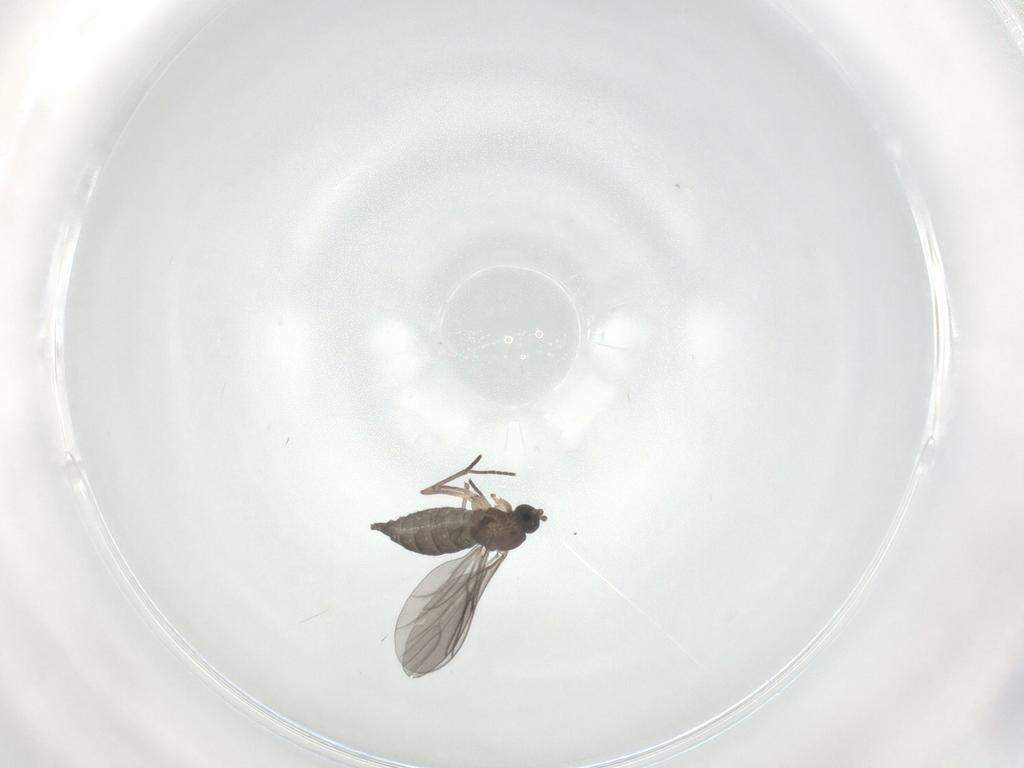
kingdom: Animalia
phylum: Arthropoda
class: Insecta
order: Diptera
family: Sciaridae
